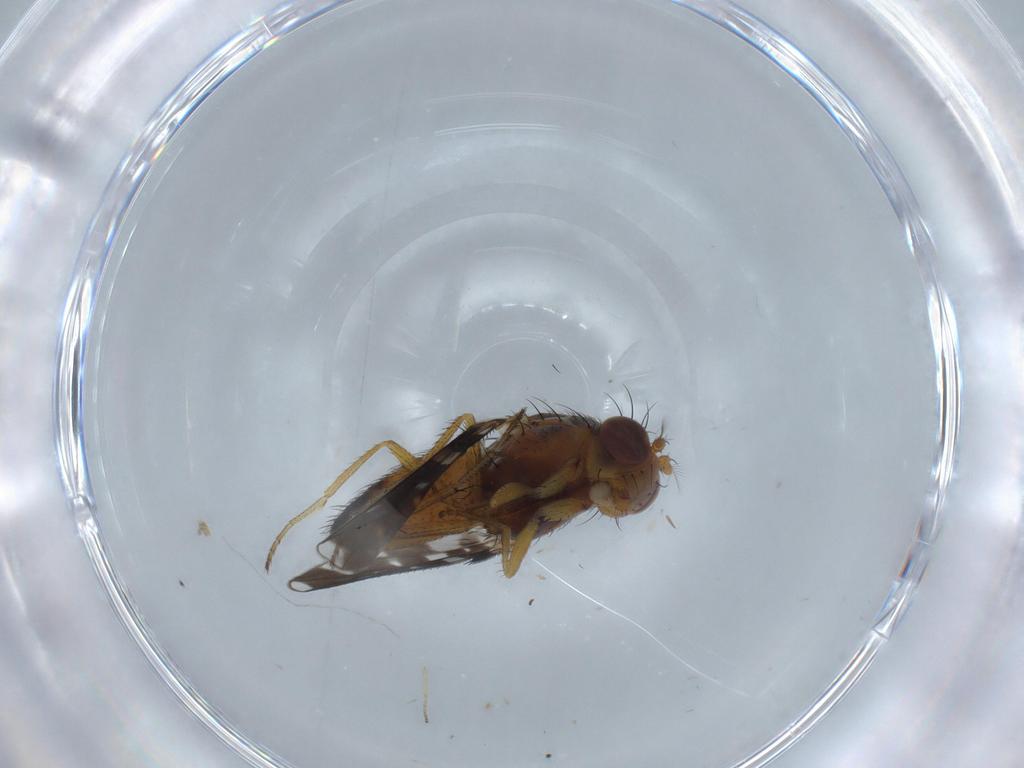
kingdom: Animalia
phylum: Arthropoda
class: Insecta
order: Diptera
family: Ephydridae
